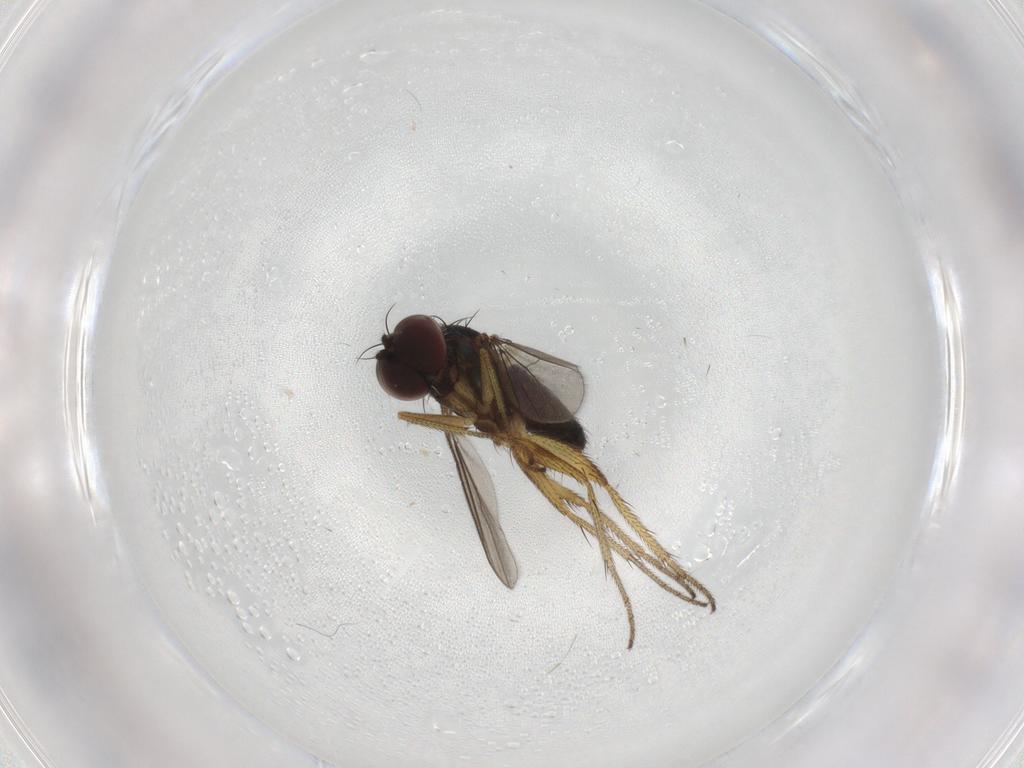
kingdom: Animalia
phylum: Arthropoda
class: Insecta
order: Diptera
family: Dolichopodidae
